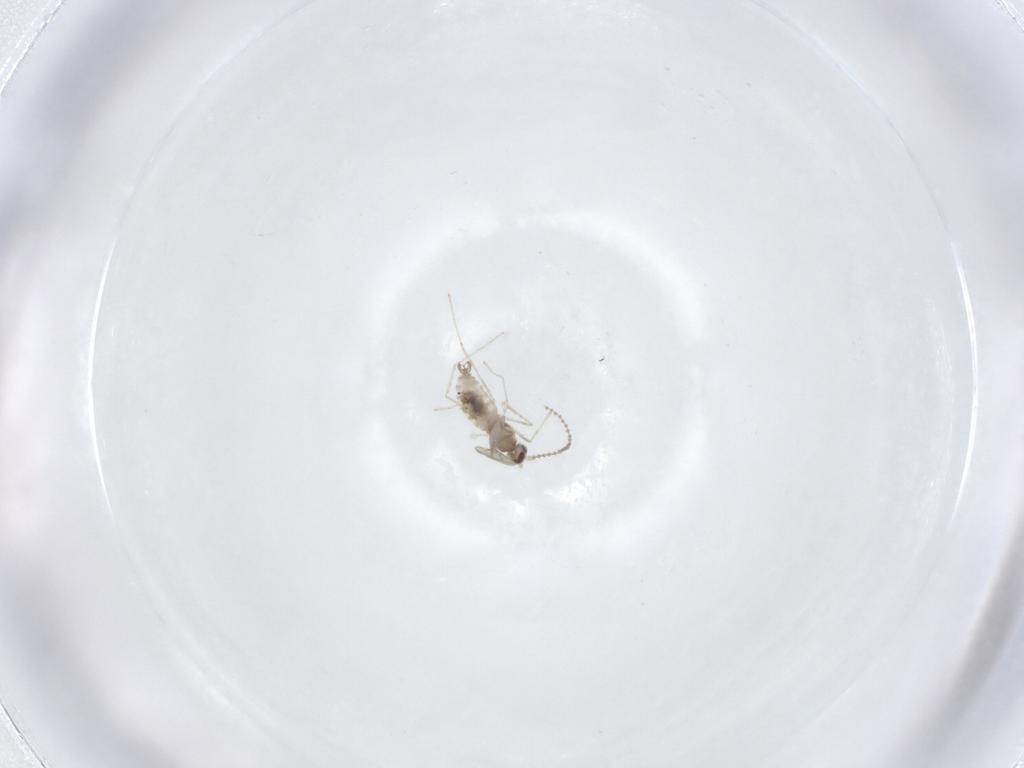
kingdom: Animalia
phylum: Arthropoda
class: Insecta
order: Diptera
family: Cecidomyiidae
